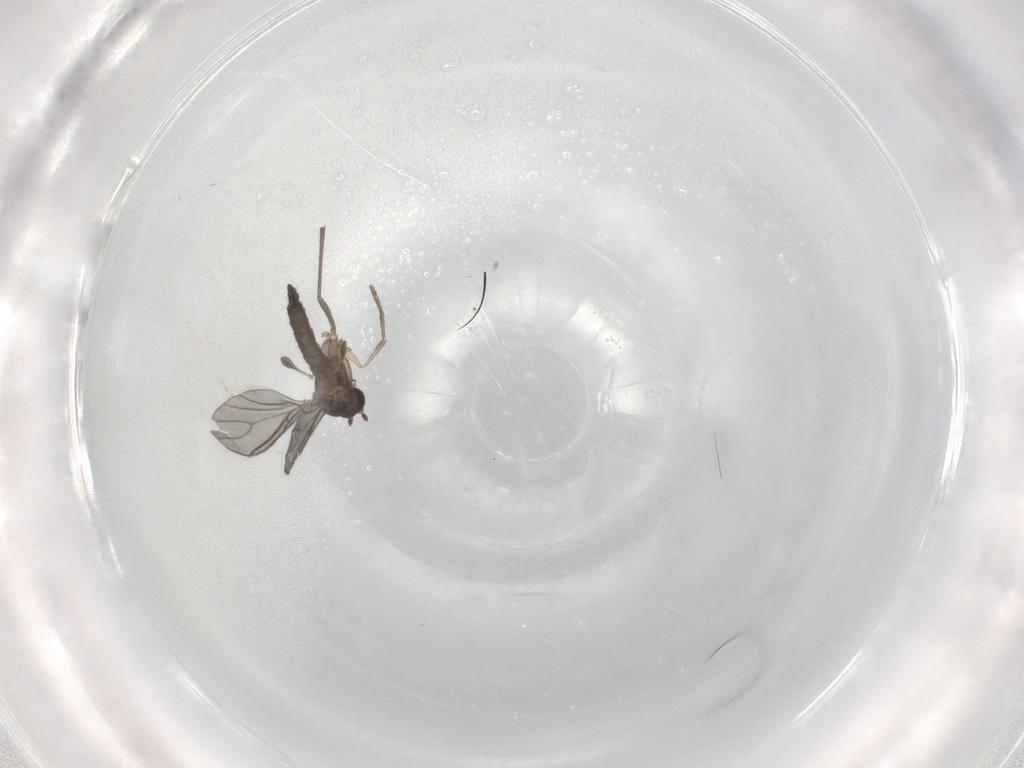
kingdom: Animalia
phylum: Arthropoda
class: Insecta
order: Diptera
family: Sciaridae
